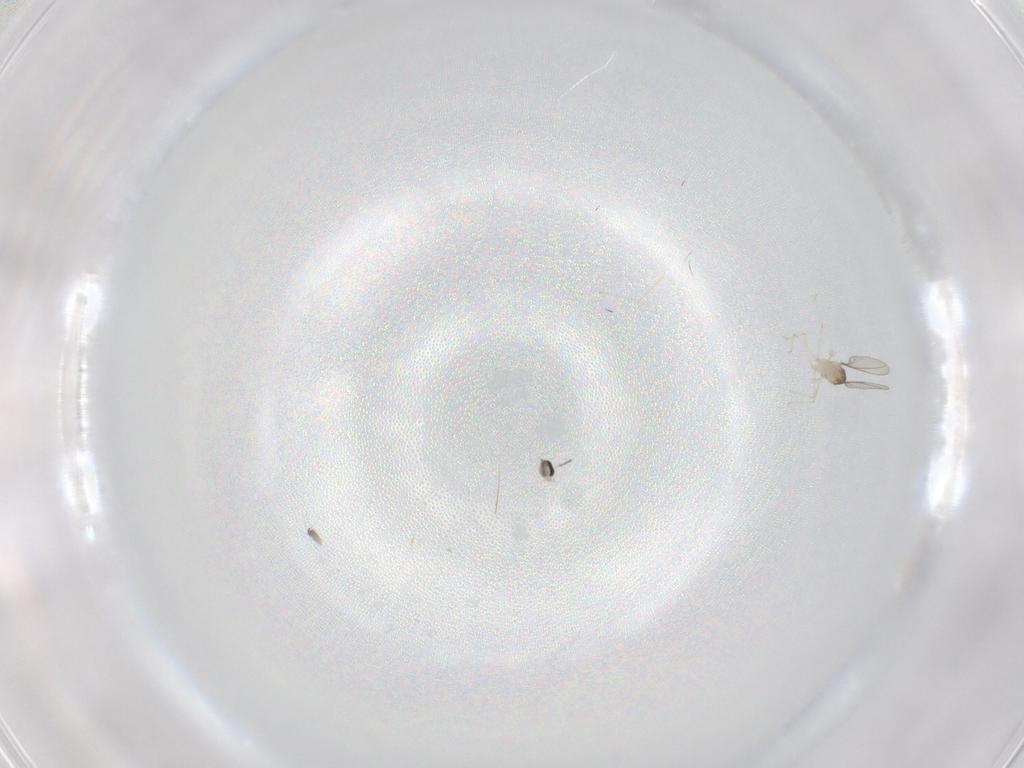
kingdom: Animalia
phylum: Arthropoda
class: Insecta
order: Diptera
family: Cecidomyiidae
